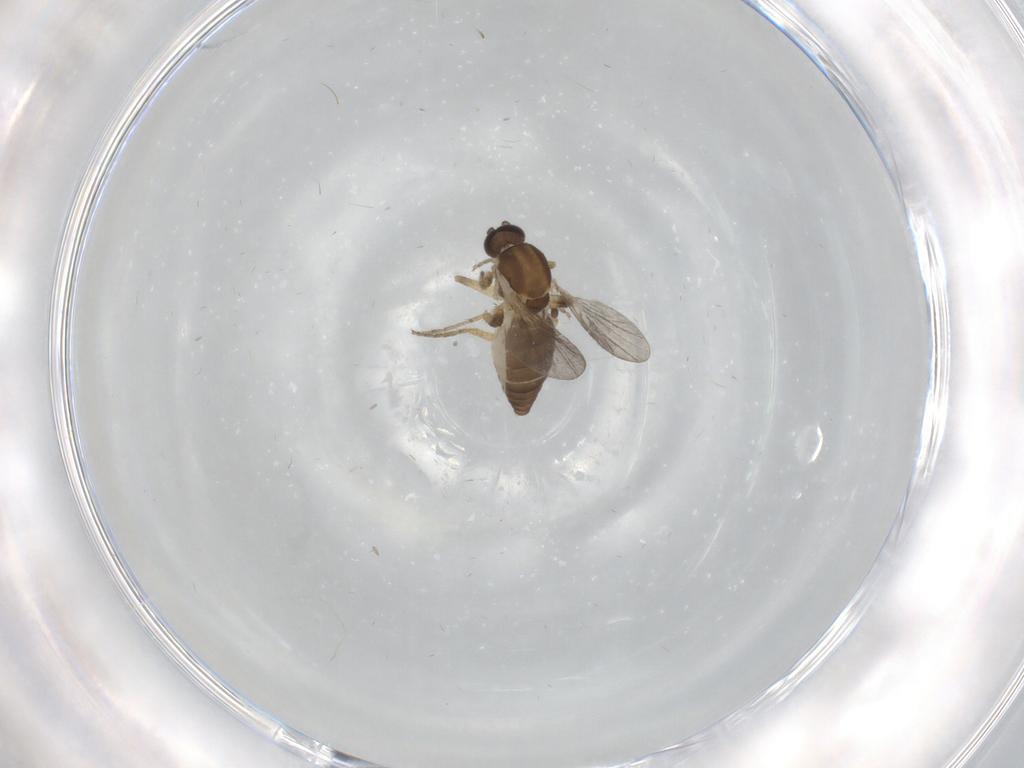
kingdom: Animalia
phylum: Arthropoda
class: Insecta
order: Diptera
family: Ceratopogonidae
